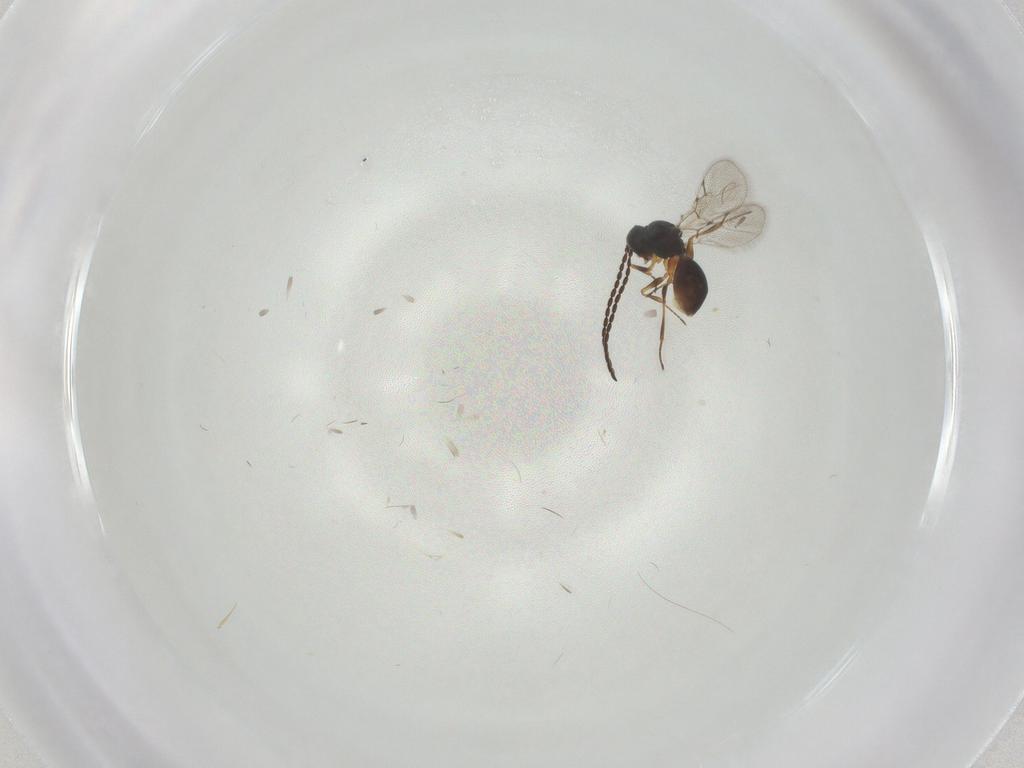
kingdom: Animalia
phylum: Arthropoda
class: Insecta
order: Hymenoptera
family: Figitidae
